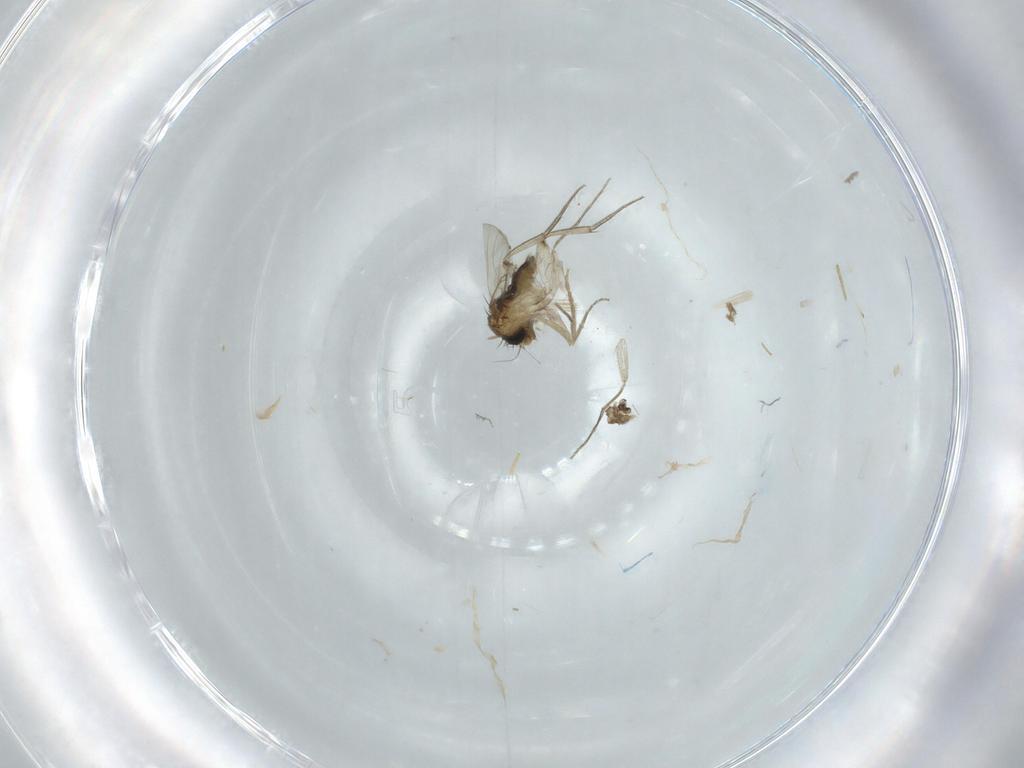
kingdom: Animalia
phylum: Arthropoda
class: Insecta
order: Diptera
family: Phoridae
